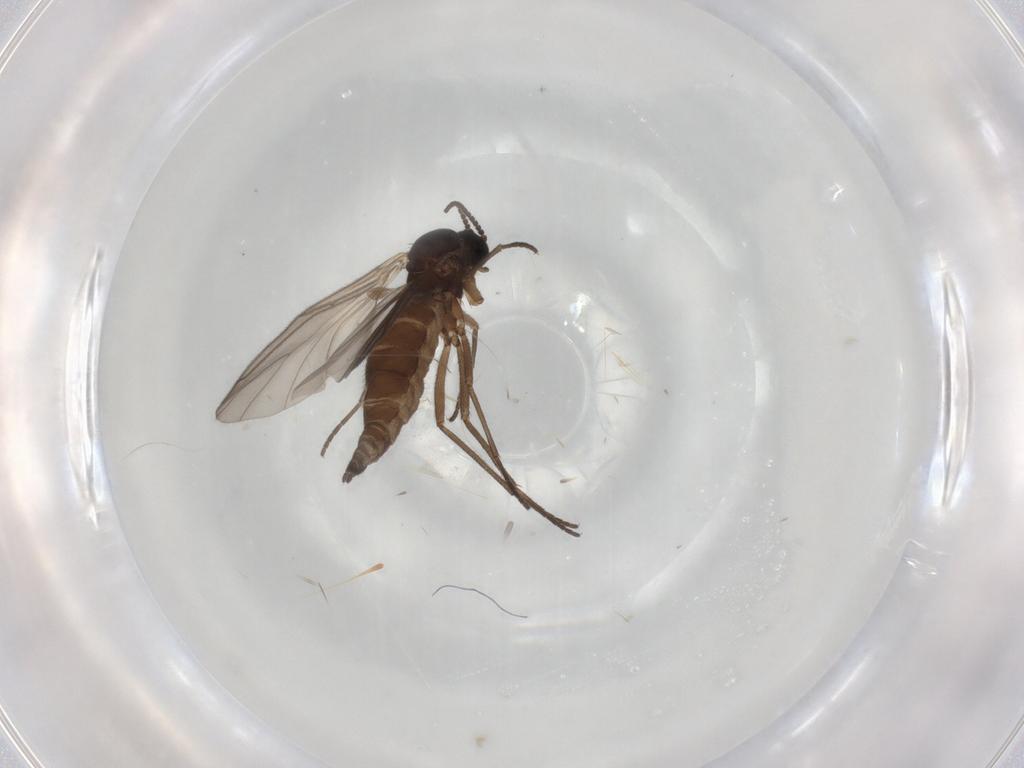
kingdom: Animalia
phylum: Arthropoda
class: Insecta
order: Diptera
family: Sciaridae
